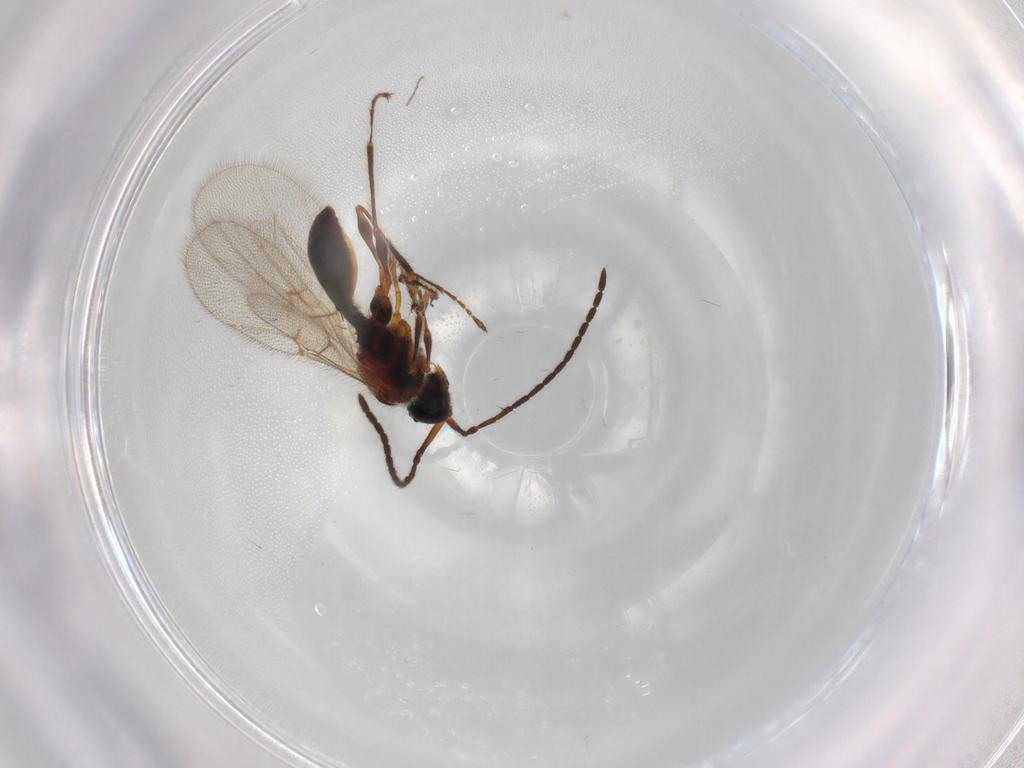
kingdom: Animalia
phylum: Arthropoda
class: Insecta
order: Hymenoptera
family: Diapriidae
